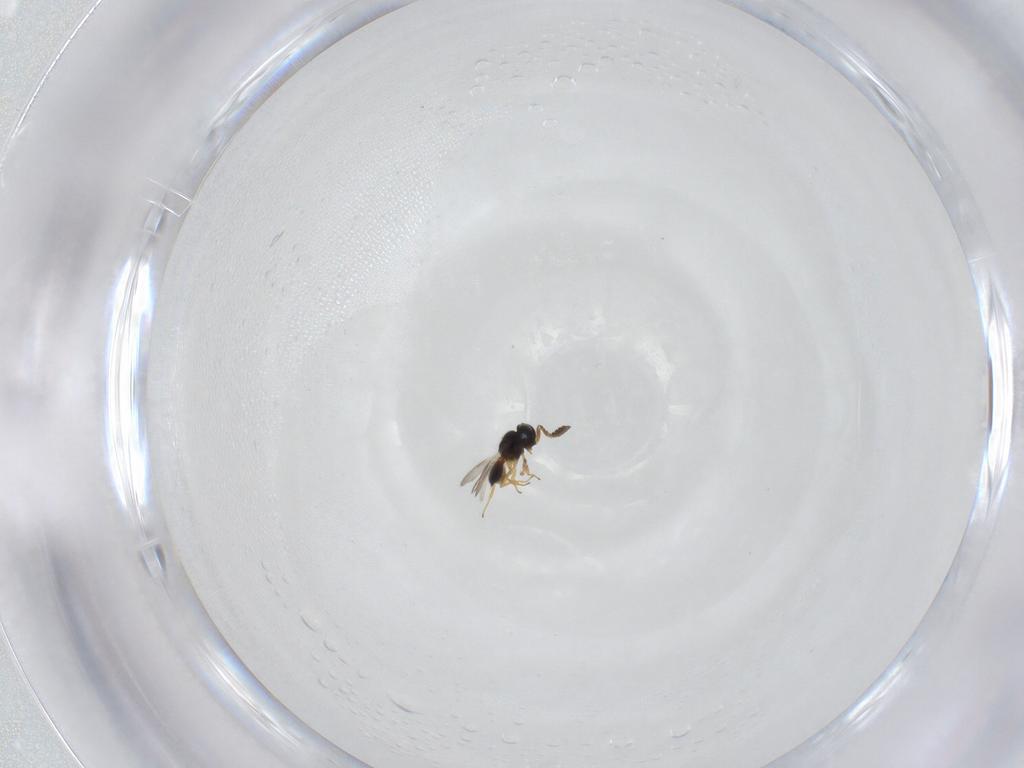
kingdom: Animalia
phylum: Arthropoda
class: Insecta
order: Hymenoptera
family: Scelionidae
